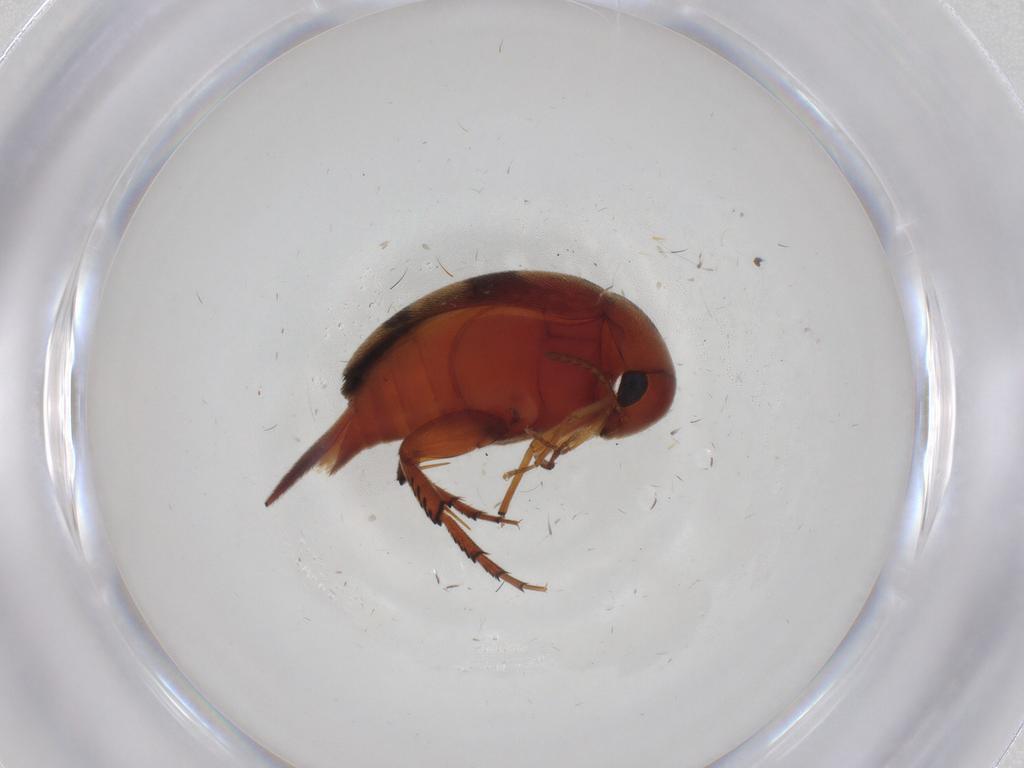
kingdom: Animalia
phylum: Arthropoda
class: Insecta
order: Coleoptera
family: Mordellidae
